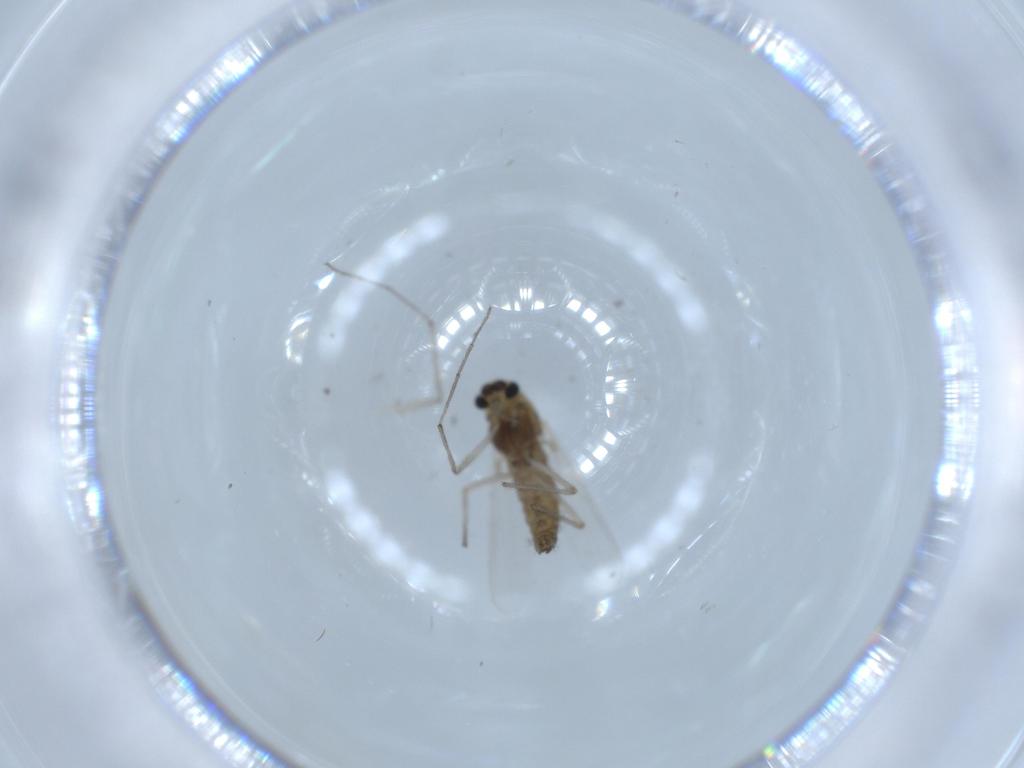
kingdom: Animalia
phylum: Arthropoda
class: Insecta
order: Diptera
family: Chironomidae
